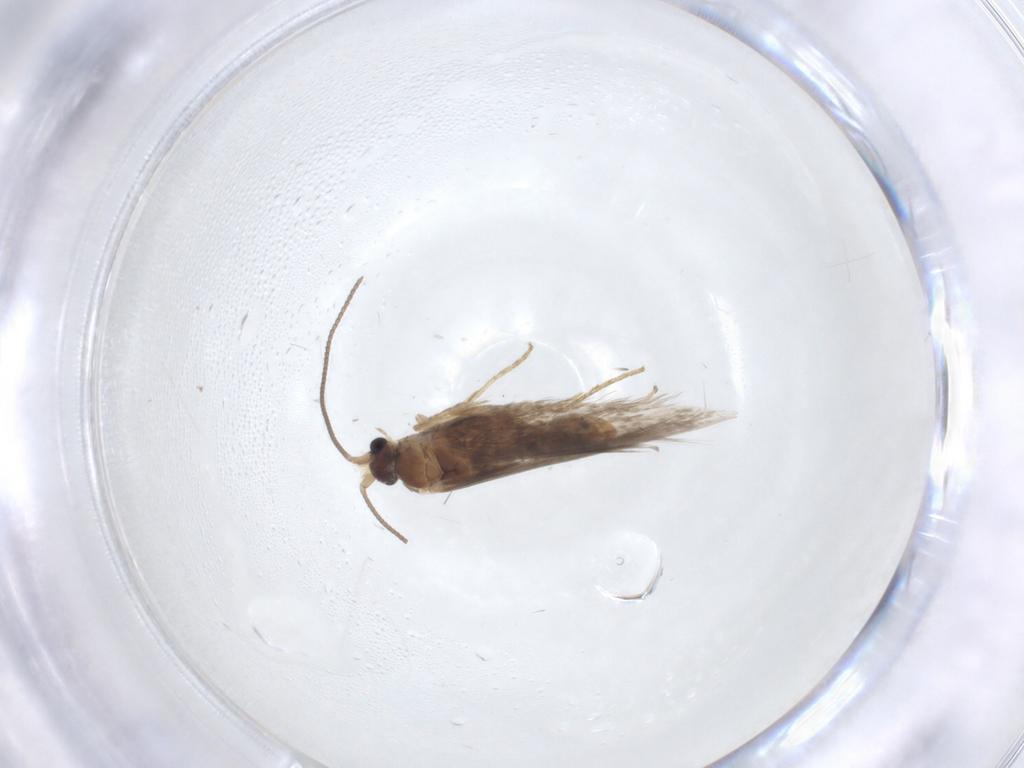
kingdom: Animalia
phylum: Arthropoda
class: Insecta
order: Lepidoptera
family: Nepticulidae
